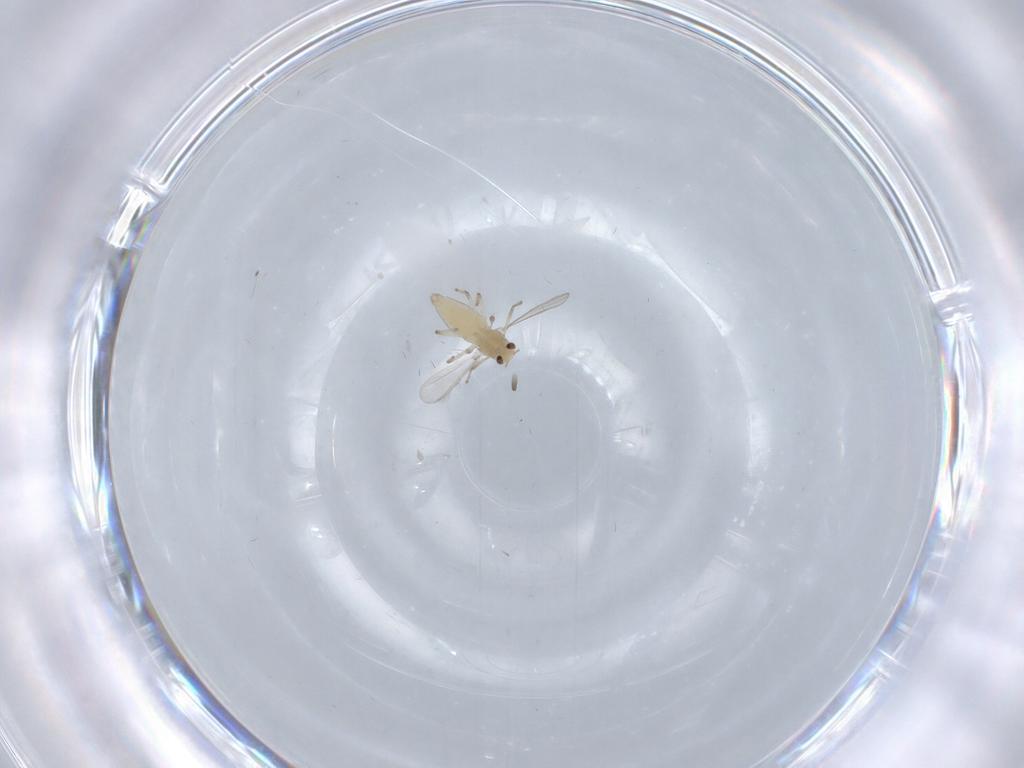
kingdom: Animalia
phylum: Arthropoda
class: Insecta
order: Diptera
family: Chironomidae
